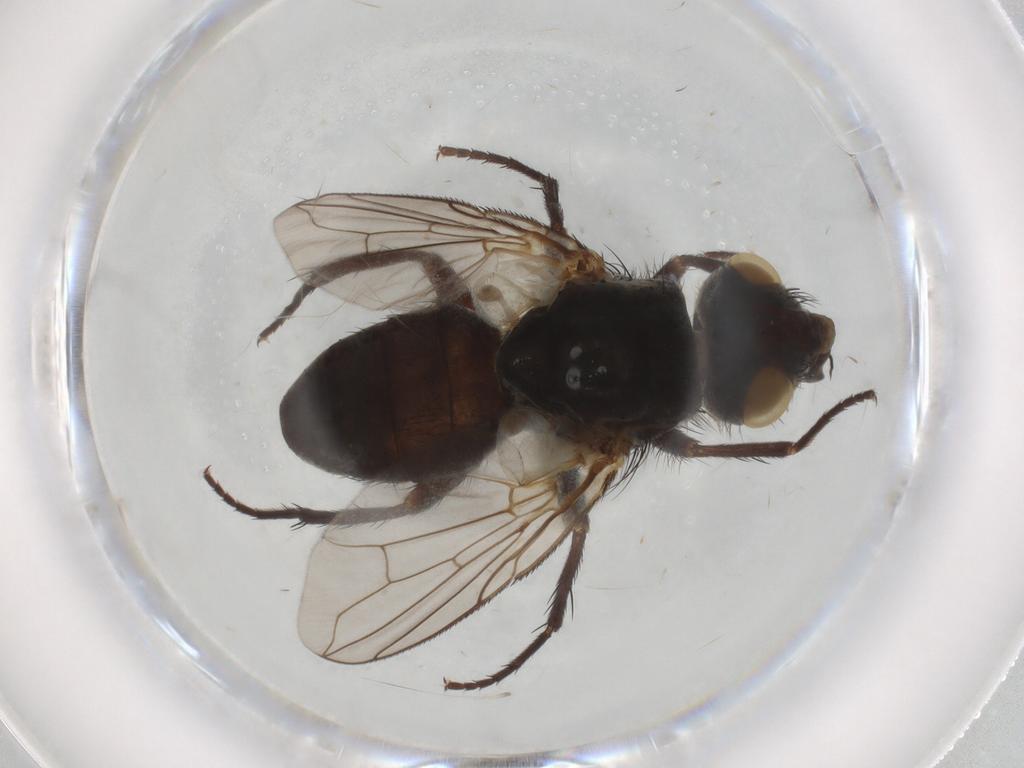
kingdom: Animalia
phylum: Arthropoda
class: Insecta
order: Diptera
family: Tachinidae
